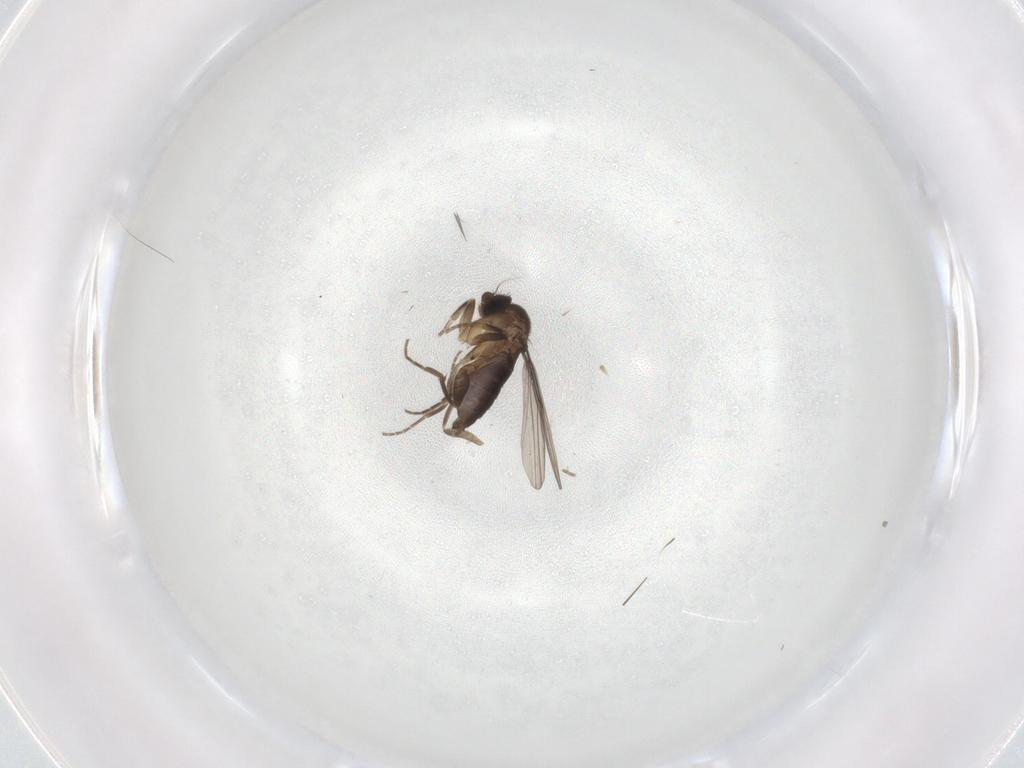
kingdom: Animalia
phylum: Arthropoda
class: Insecta
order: Diptera
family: Phoridae
